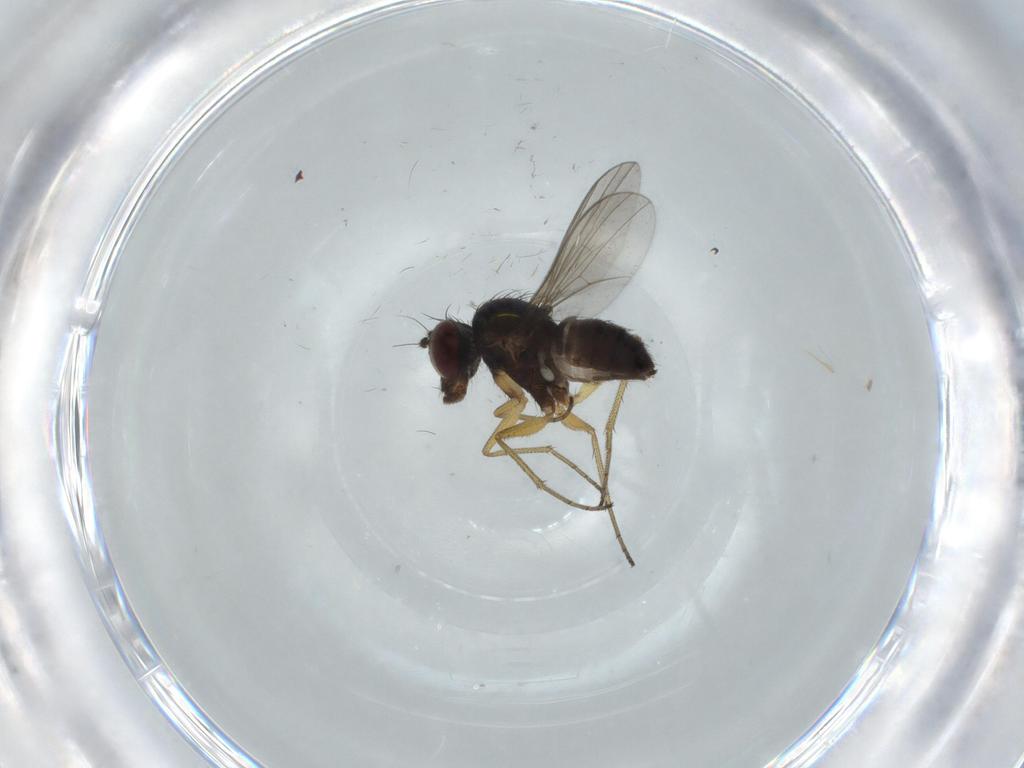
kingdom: Animalia
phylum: Arthropoda
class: Insecta
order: Diptera
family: Dolichopodidae
